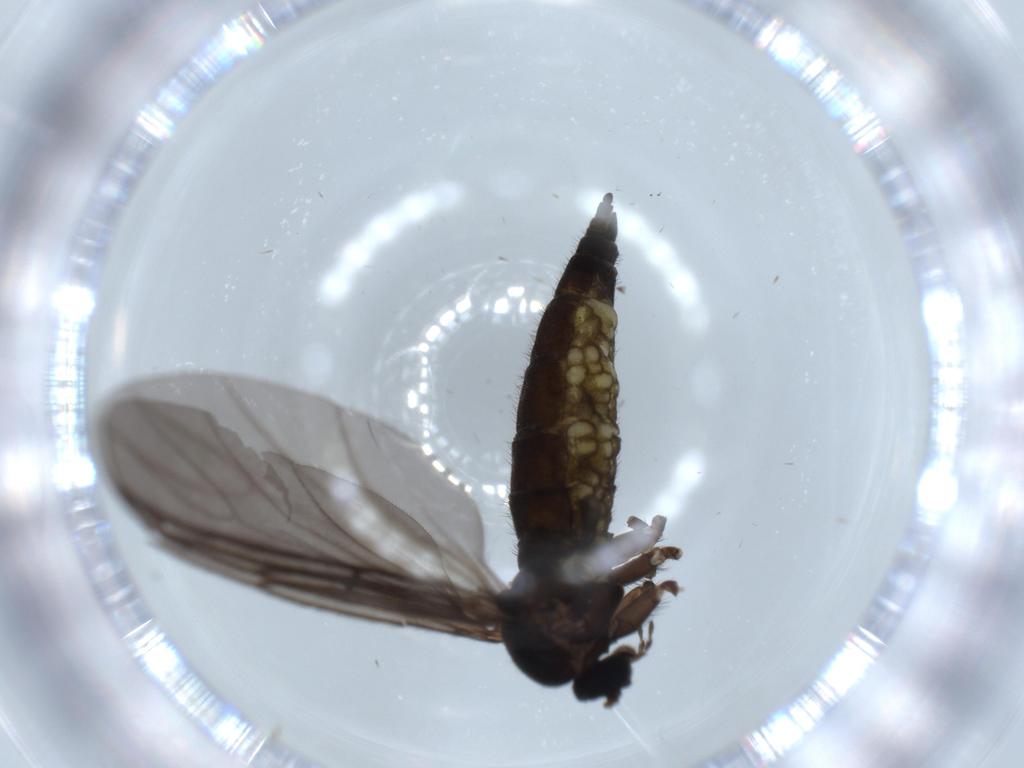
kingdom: Animalia
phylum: Arthropoda
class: Insecta
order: Diptera
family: Sciaridae
